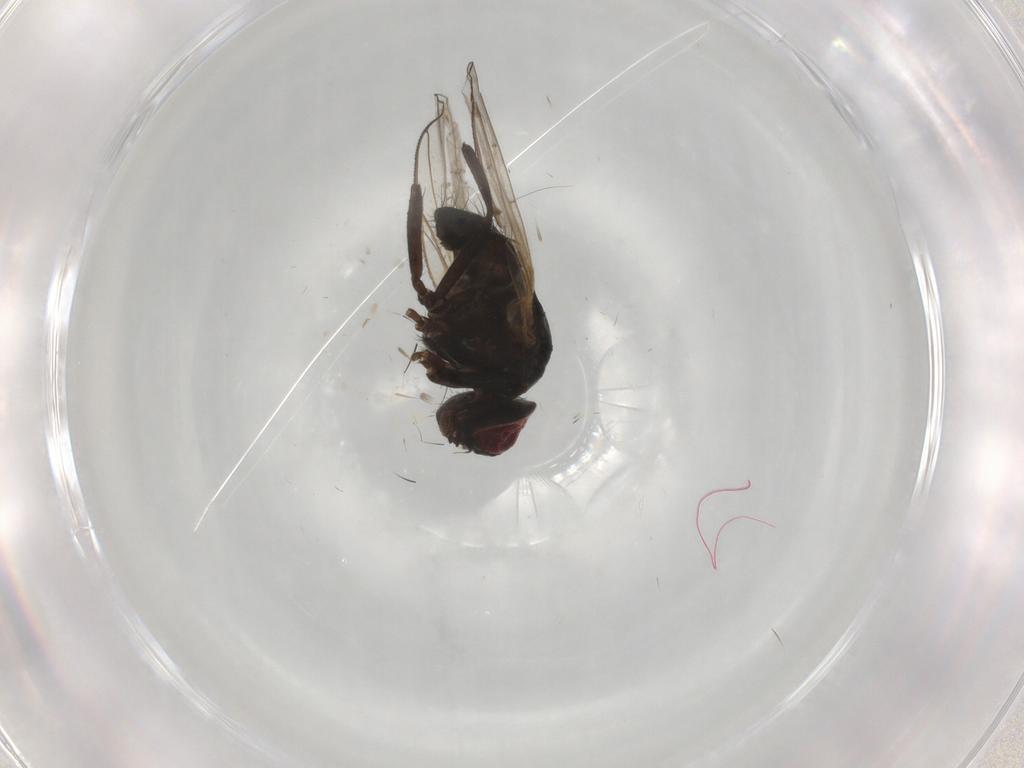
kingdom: Animalia
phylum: Arthropoda
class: Insecta
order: Diptera
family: Muscidae
